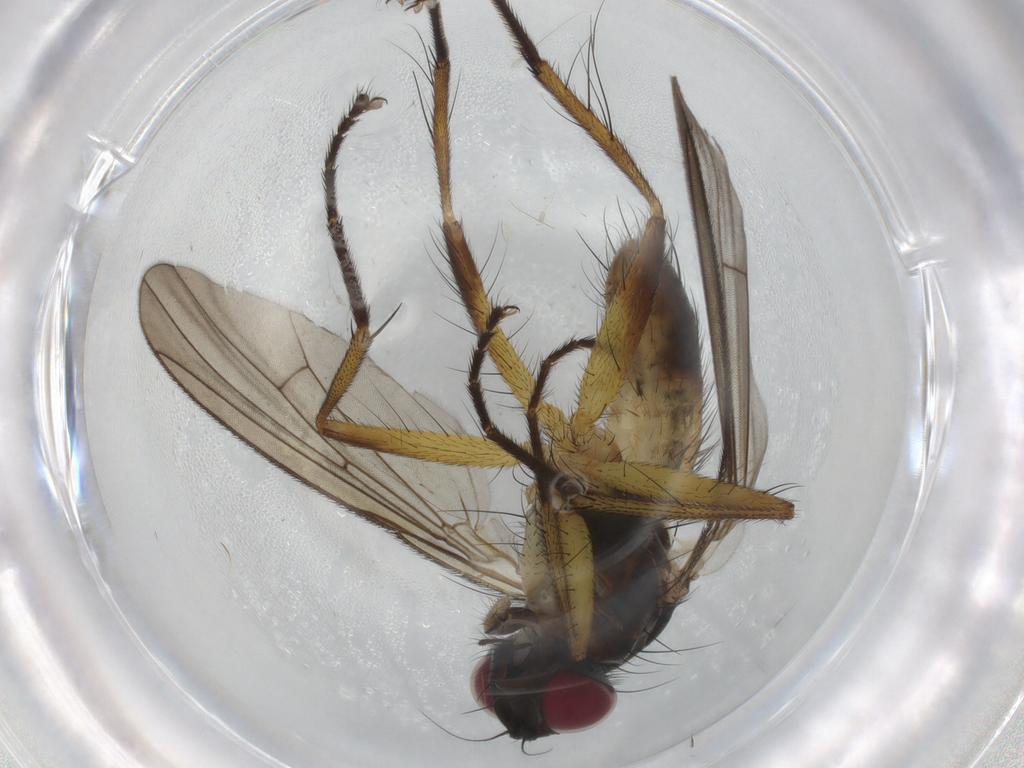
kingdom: Animalia
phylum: Arthropoda
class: Insecta
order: Diptera
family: Muscidae
